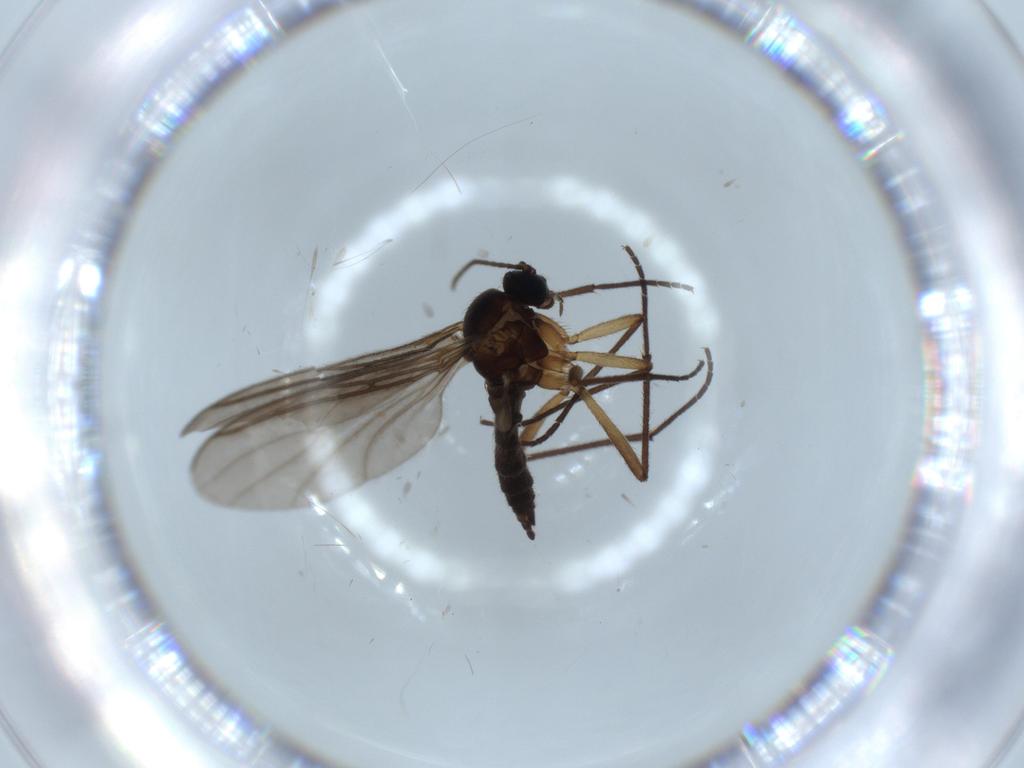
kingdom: Animalia
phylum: Arthropoda
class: Insecta
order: Diptera
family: Sciaridae
